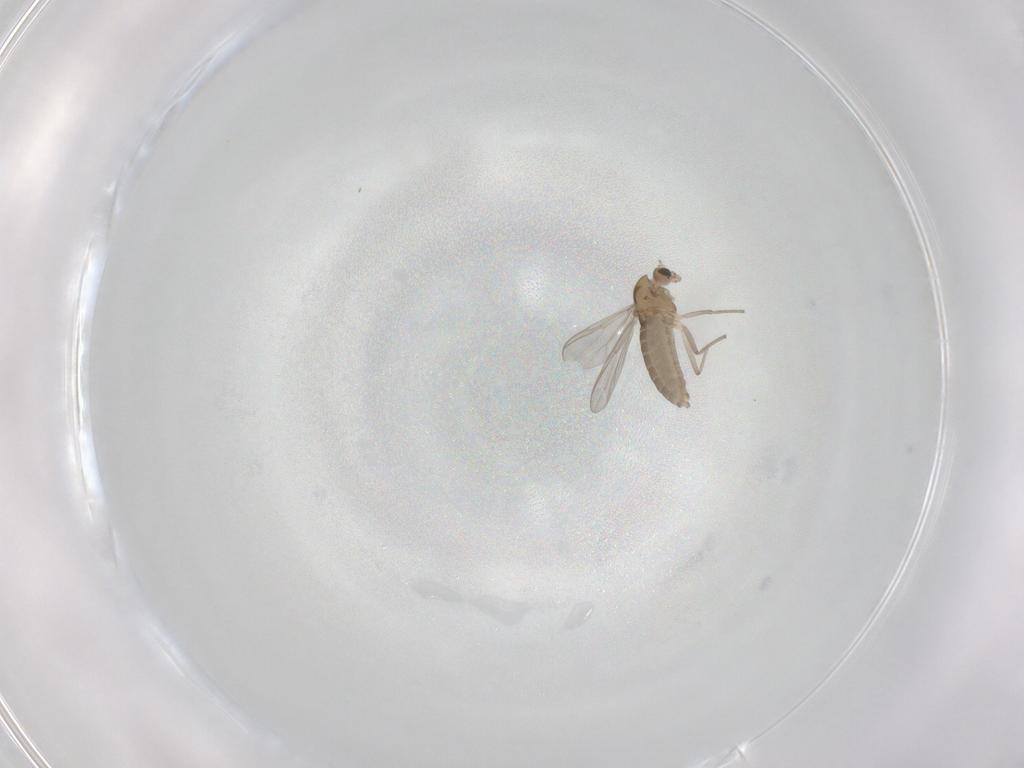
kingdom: Animalia
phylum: Arthropoda
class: Insecta
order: Diptera
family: Chironomidae
